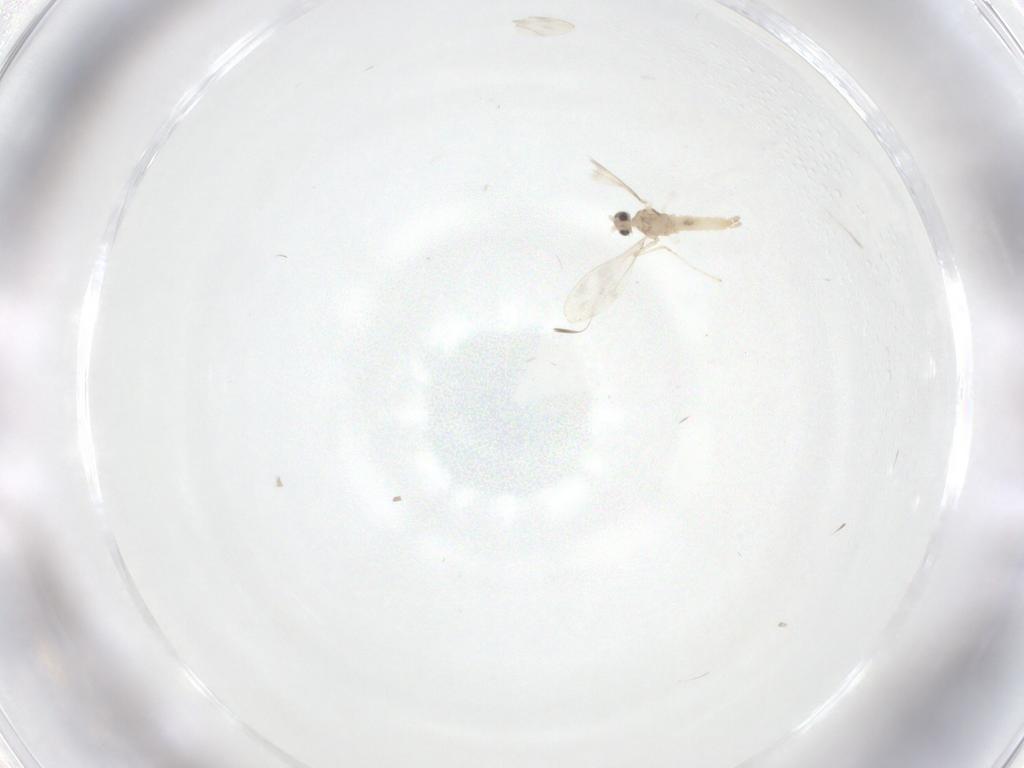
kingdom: Animalia
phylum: Arthropoda
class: Insecta
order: Diptera
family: Cecidomyiidae
